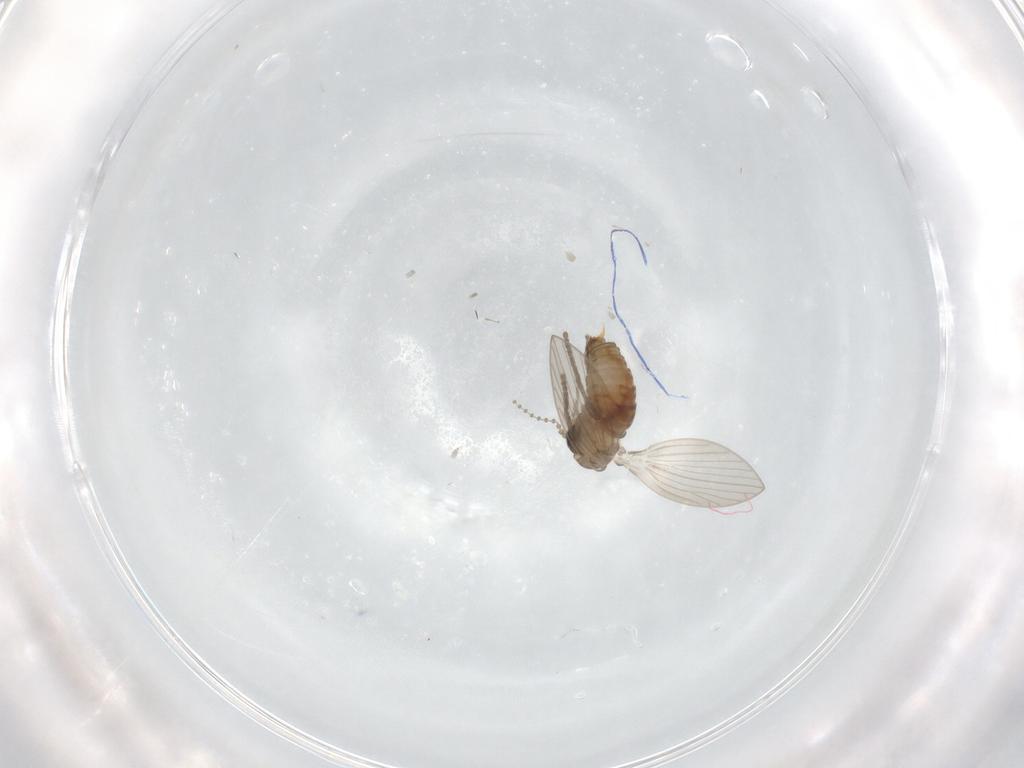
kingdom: Animalia
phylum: Arthropoda
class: Insecta
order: Diptera
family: Psychodidae
